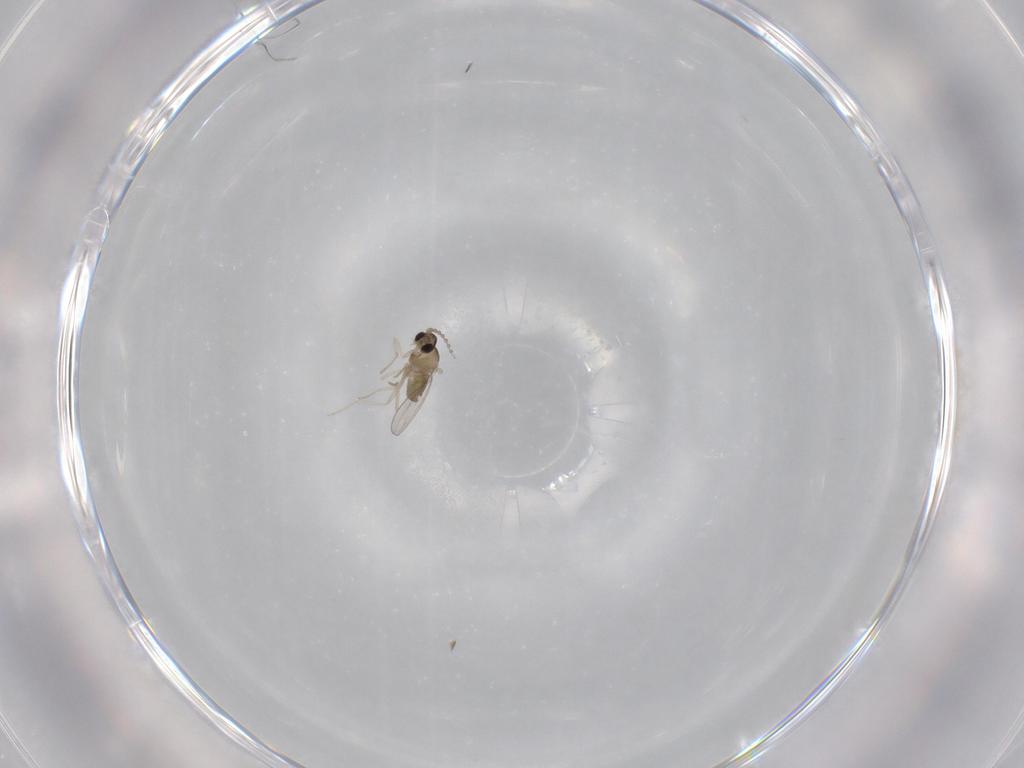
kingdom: Animalia
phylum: Arthropoda
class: Insecta
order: Diptera
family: Cecidomyiidae
